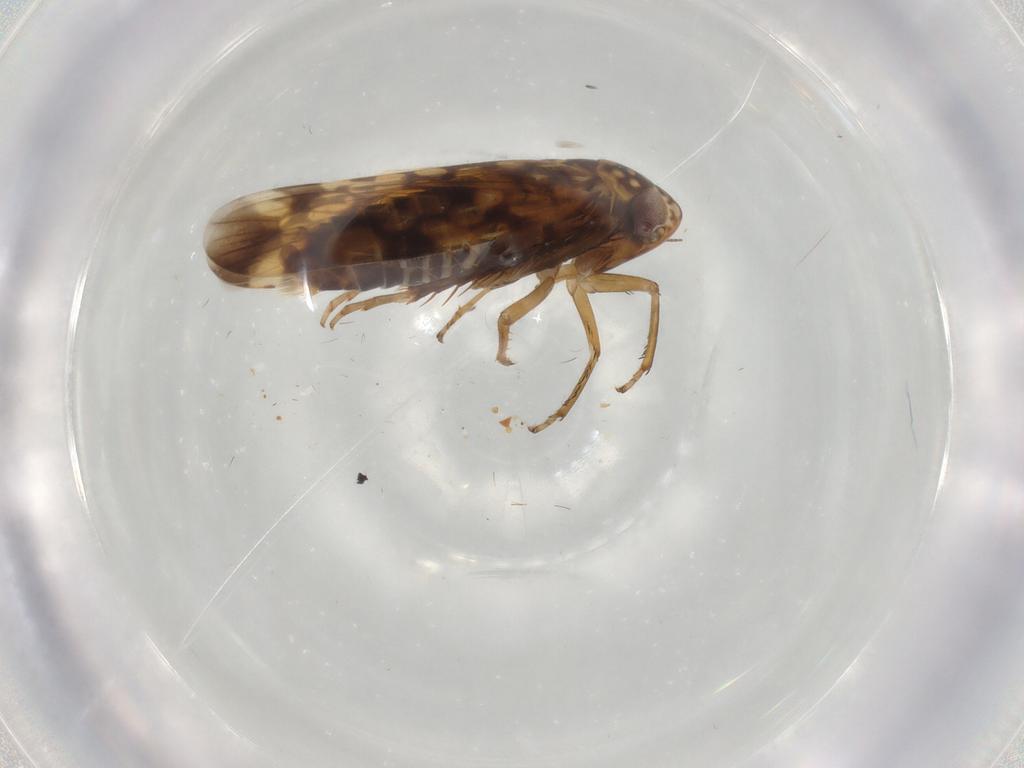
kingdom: Animalia
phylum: Arthropoda
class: Insecta
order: Hemiptera
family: Cicadellidae
